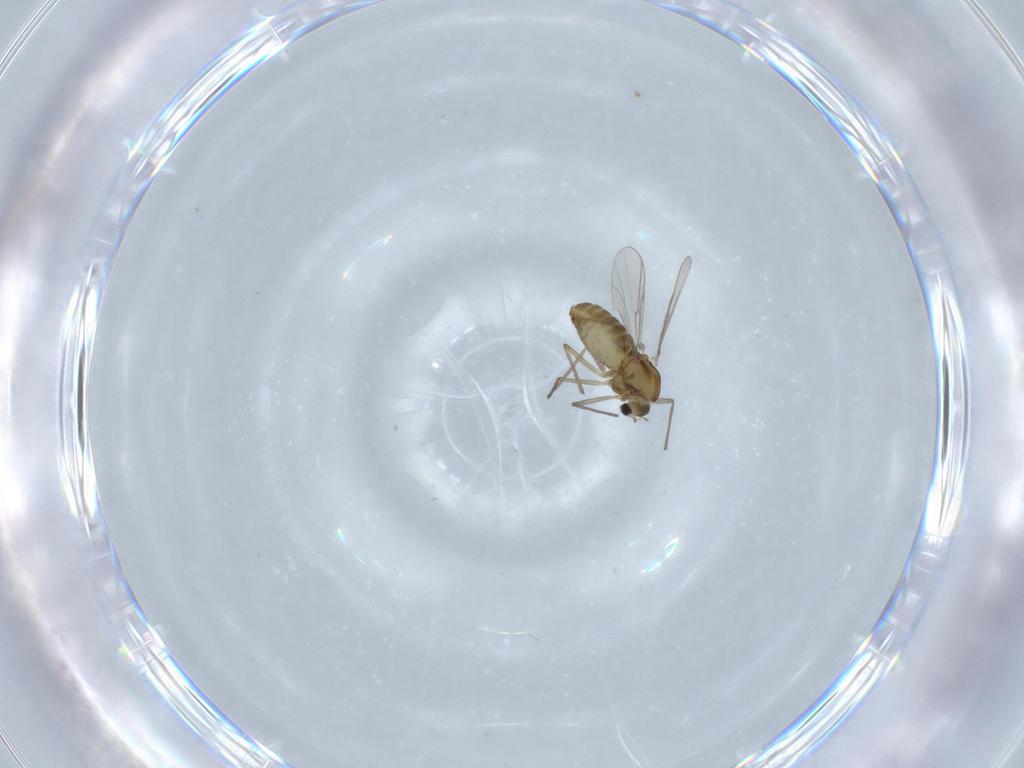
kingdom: Animalia
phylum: Arthropoda
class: Insecta
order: Diptera
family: Chironomidae
